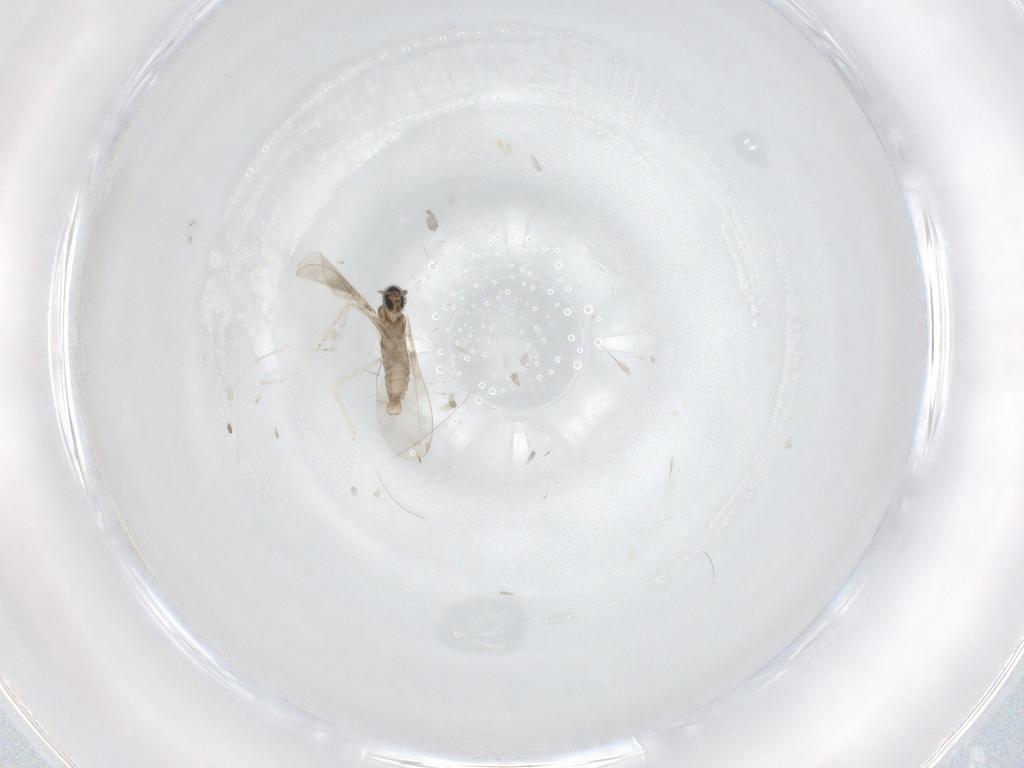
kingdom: Animalia
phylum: Arthropoda
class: Insecta
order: Diptera
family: Cecidomyiidae
